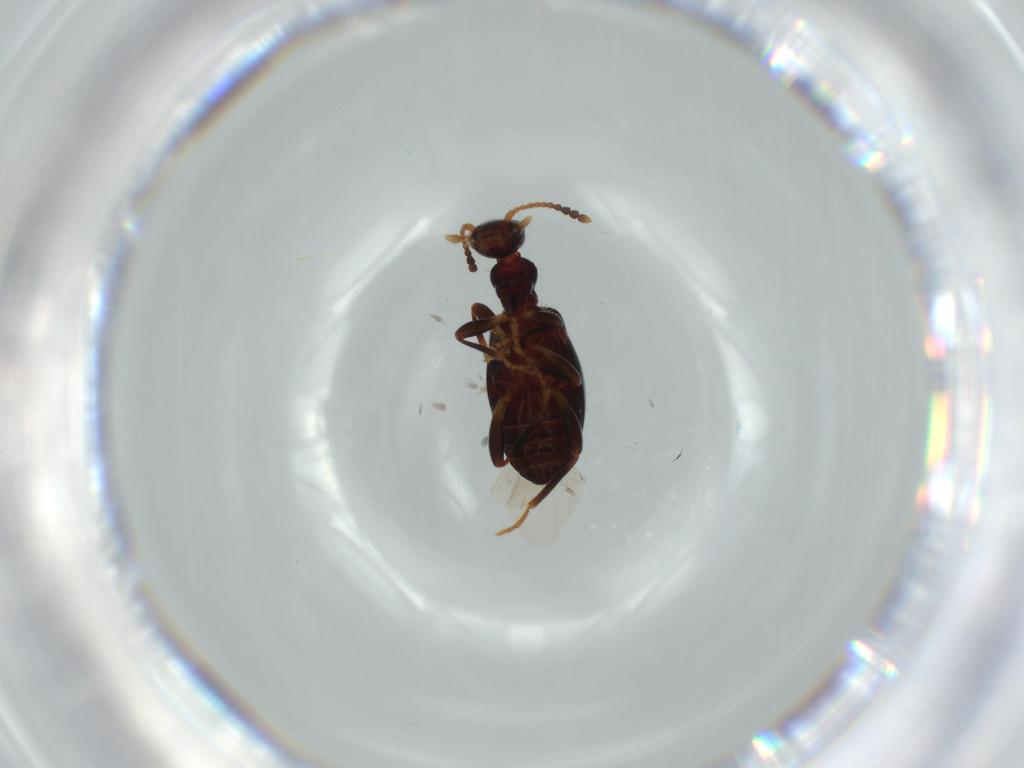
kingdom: Animalia
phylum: Arthropoda
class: Insecta
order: Coleoptera
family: Anthicidae
